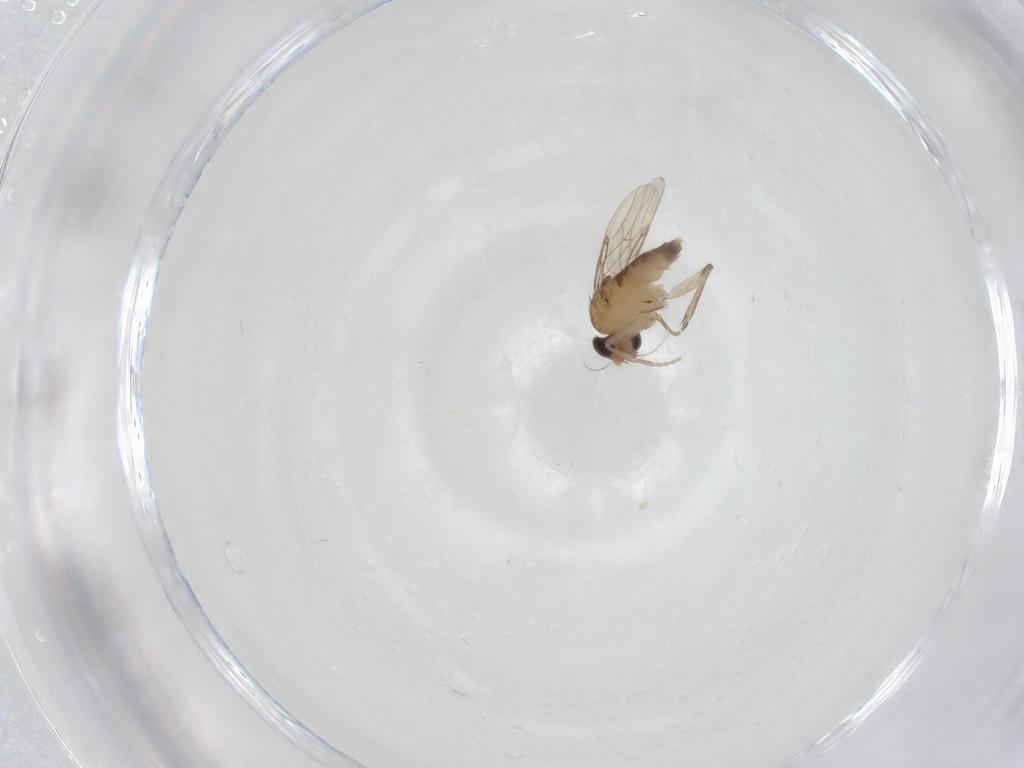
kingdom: Animalia
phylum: Arthropoda
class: Insecta
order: Diptera
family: Phoridae
